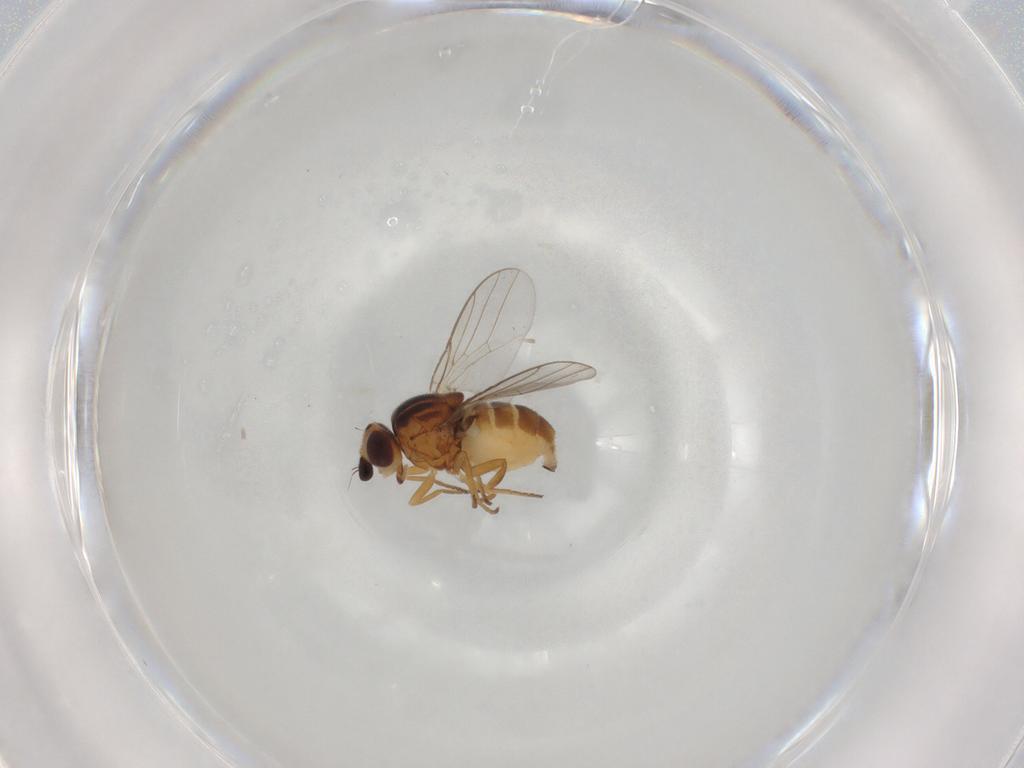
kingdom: Animalia
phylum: Arthropoda
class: Insecta
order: Diptera
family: Chloropidae
